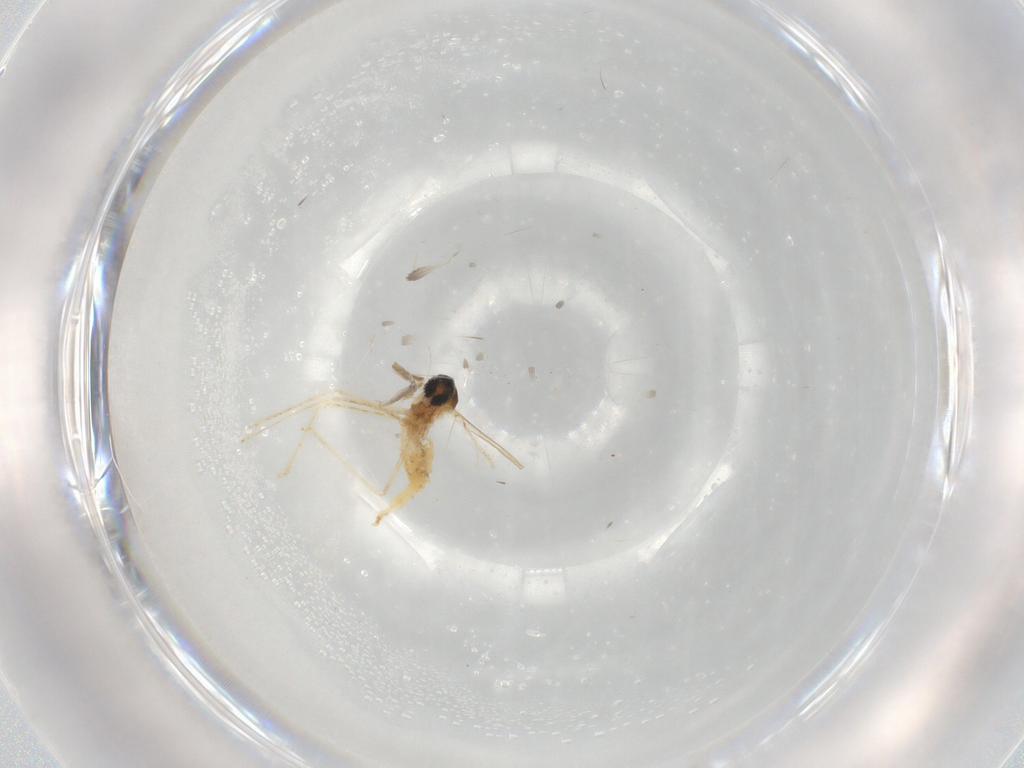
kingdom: Animalia
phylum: Arthropoda
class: Insecta
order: Diptera
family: Cecidomyiidae
